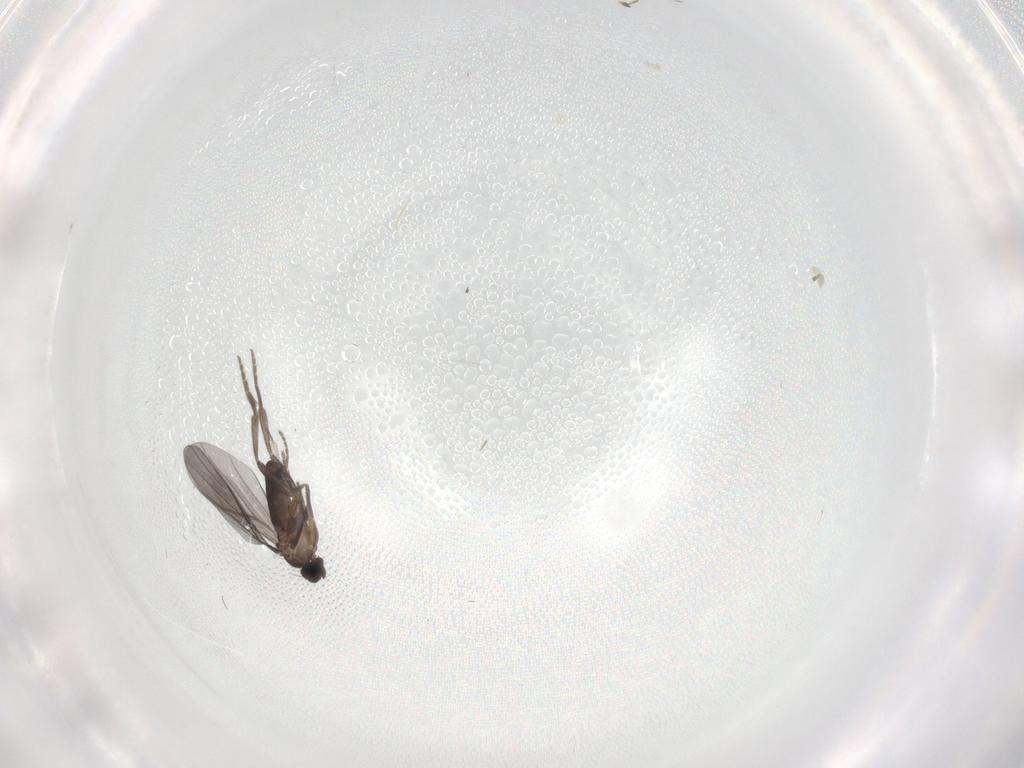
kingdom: Animalia
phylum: Arthropoda
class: Insecta
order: Diptera
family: Phoridae
